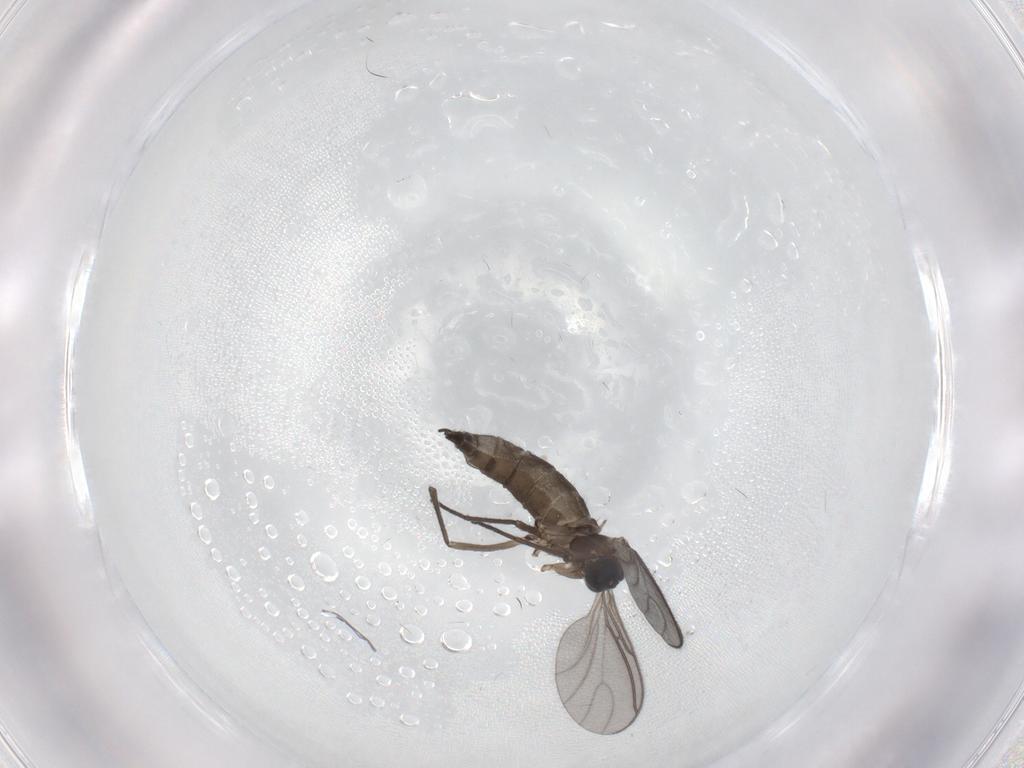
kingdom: Animalia
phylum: Arthropoda
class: Insecta
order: Diptera
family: Sciaridae
